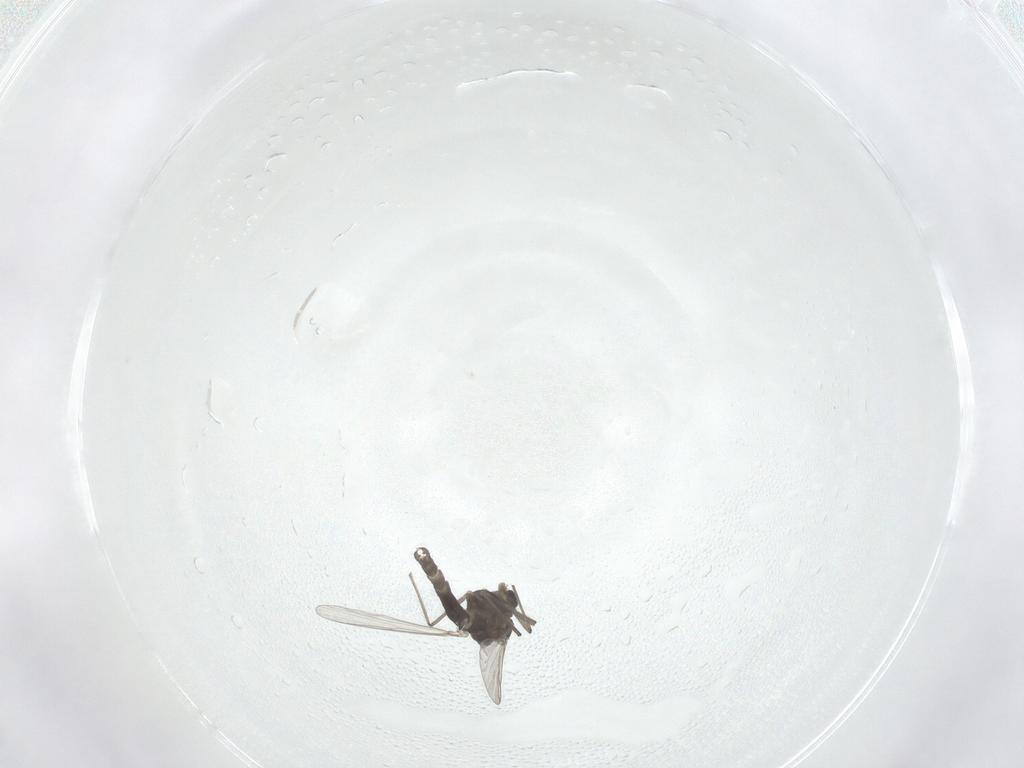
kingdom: Animalia
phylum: Arthropoda
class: Insecta
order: Diptera
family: Chironomidae
